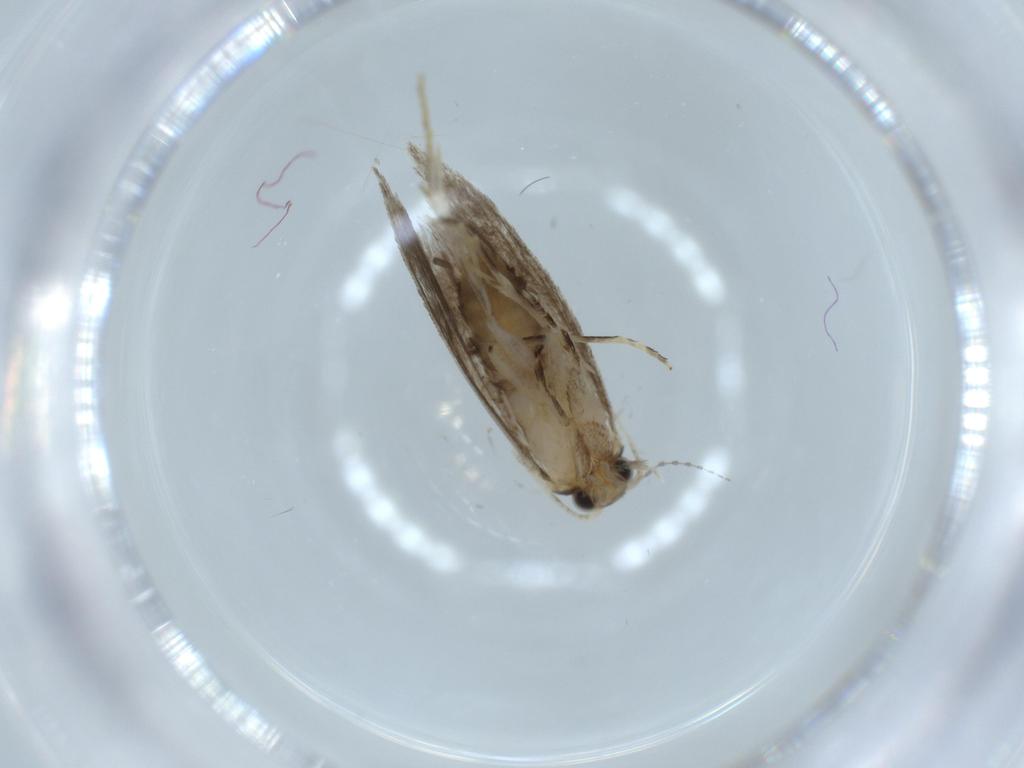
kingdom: Animalia
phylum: Arthropoda
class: Insecta
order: Lepidoptera
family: Tineidae
